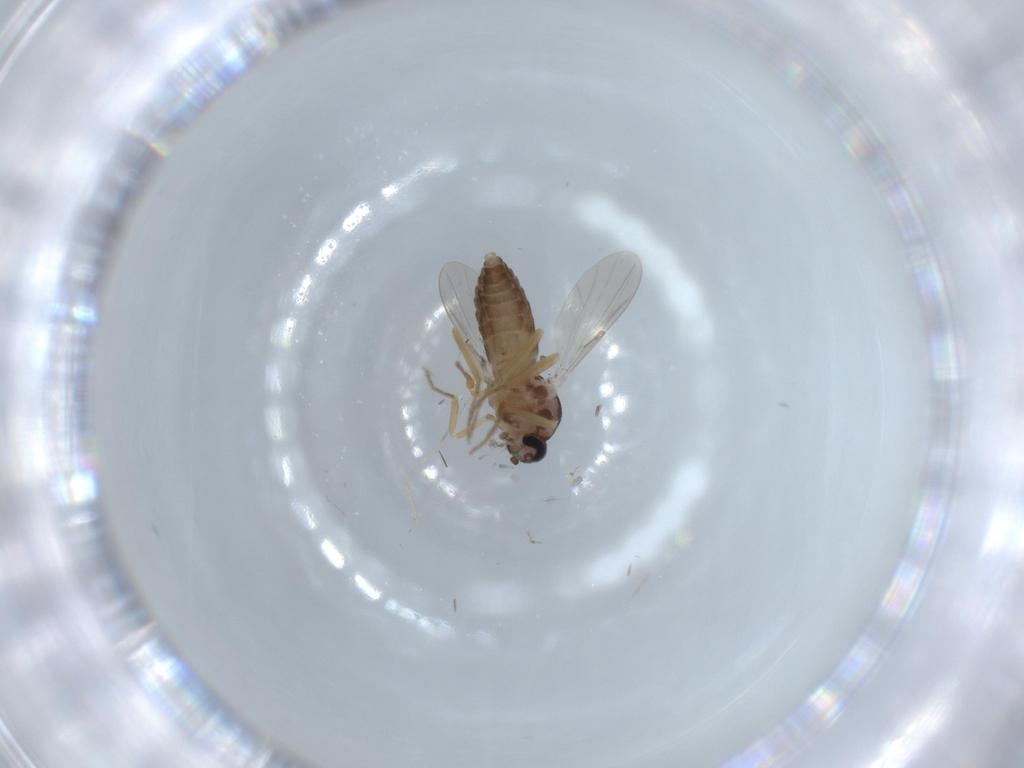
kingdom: Animalia
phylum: Arthropoda
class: Insecta
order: Diptera
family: Ceratopogonidae
